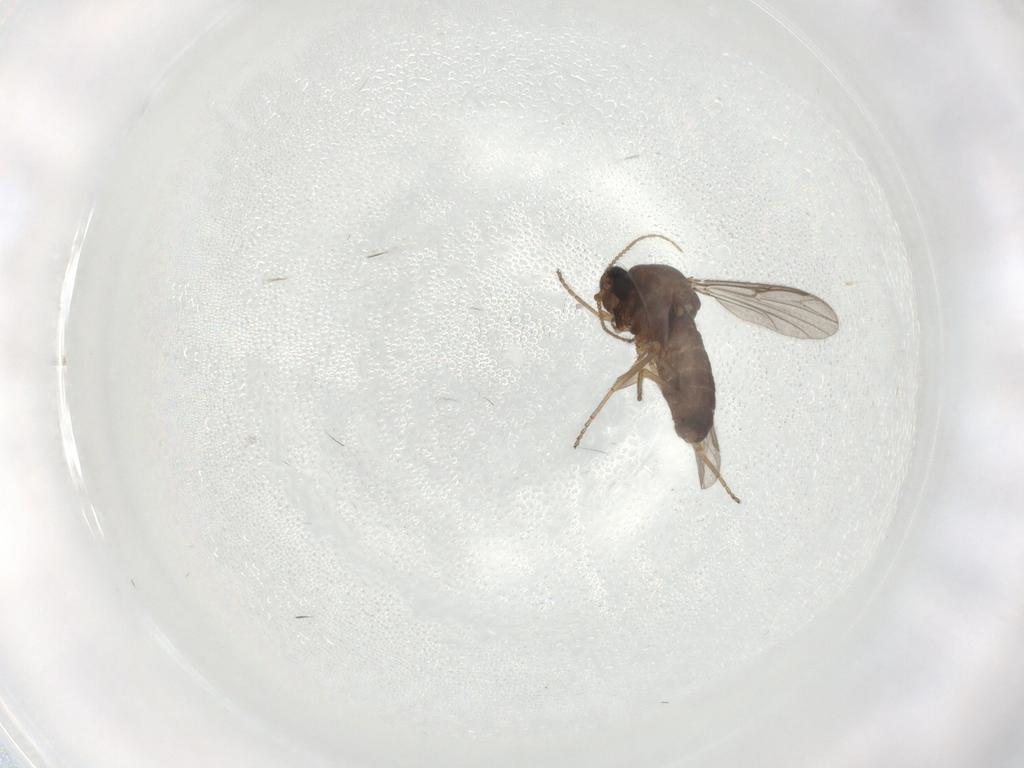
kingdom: Animalia
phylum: Arthropoda
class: Insecta
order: Diptera
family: Ceratopogonidae
